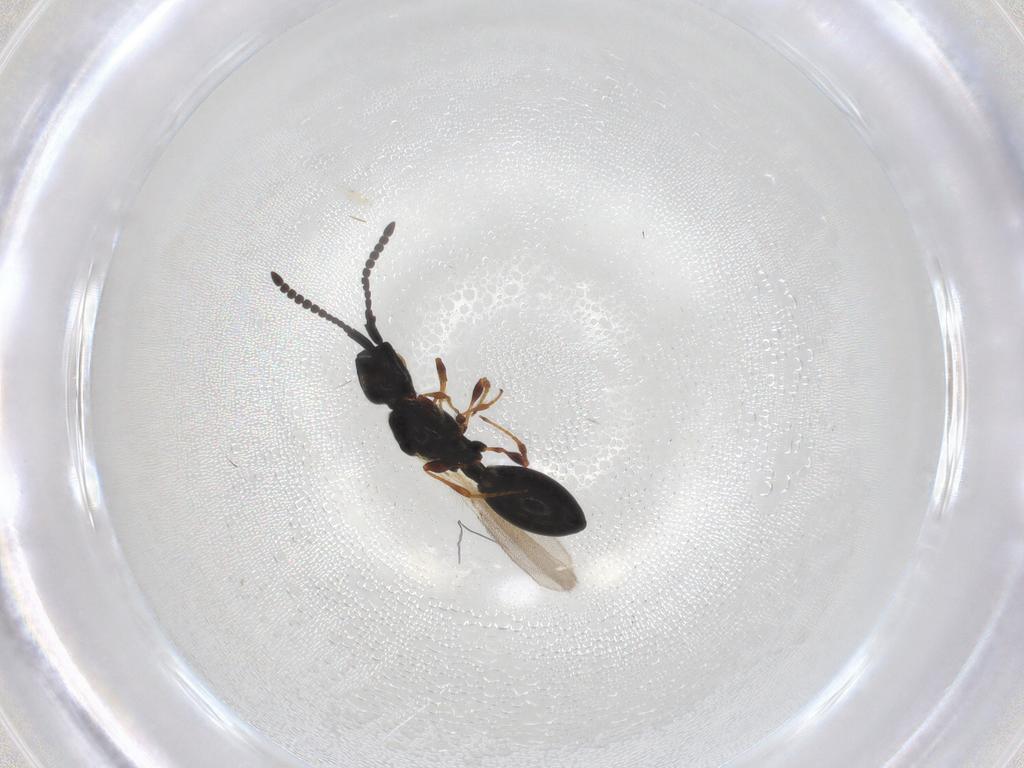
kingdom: Animalia
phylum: Arthropoda
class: Insecta
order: Hymenoptera
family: Diapriidae
